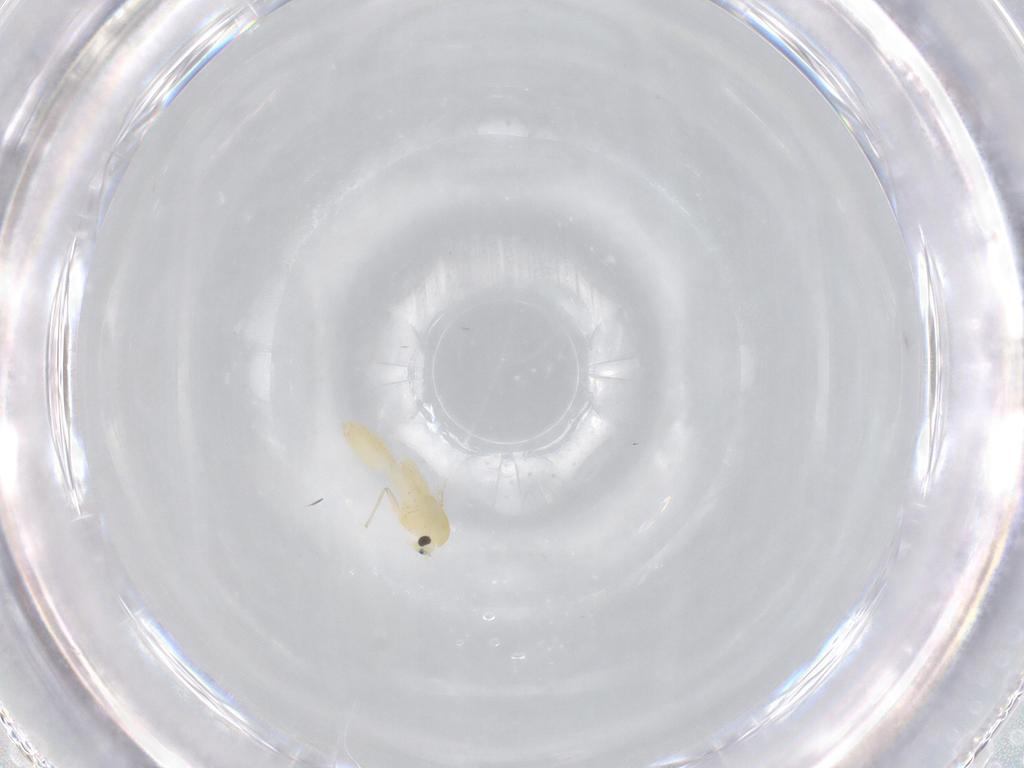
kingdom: Animalia
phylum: Arthropoda
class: Insecta
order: Diptera
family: Chironomidae
